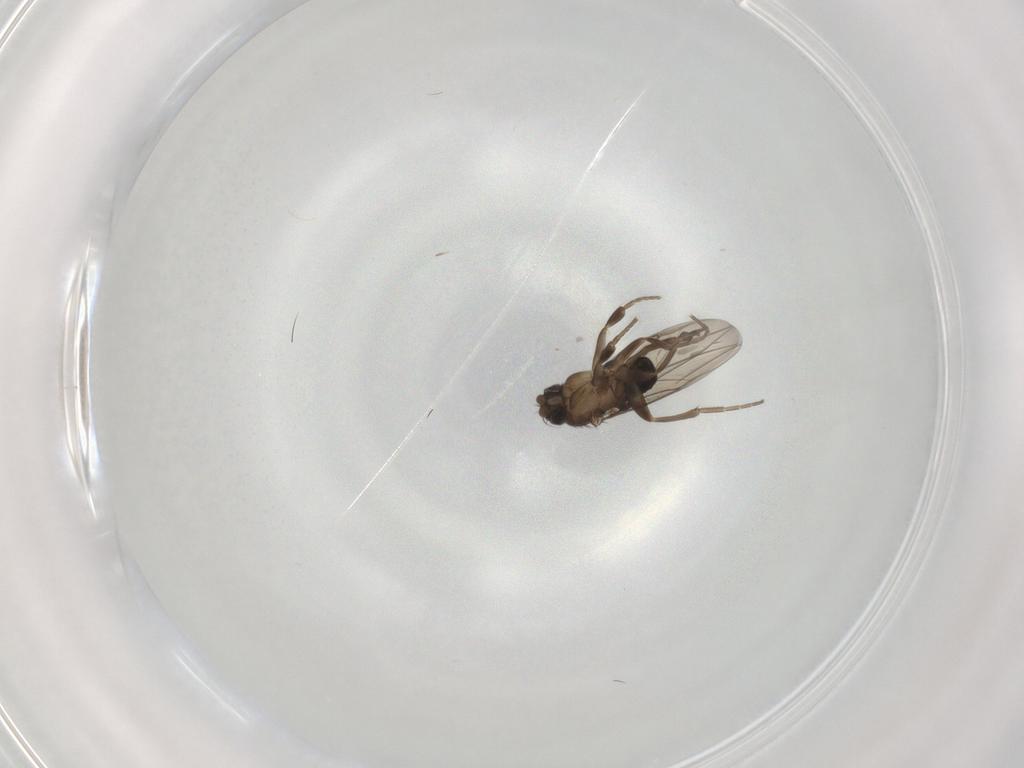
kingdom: Animalia
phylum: Arthropoda
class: Insecta
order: Diptera
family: Phoridae
